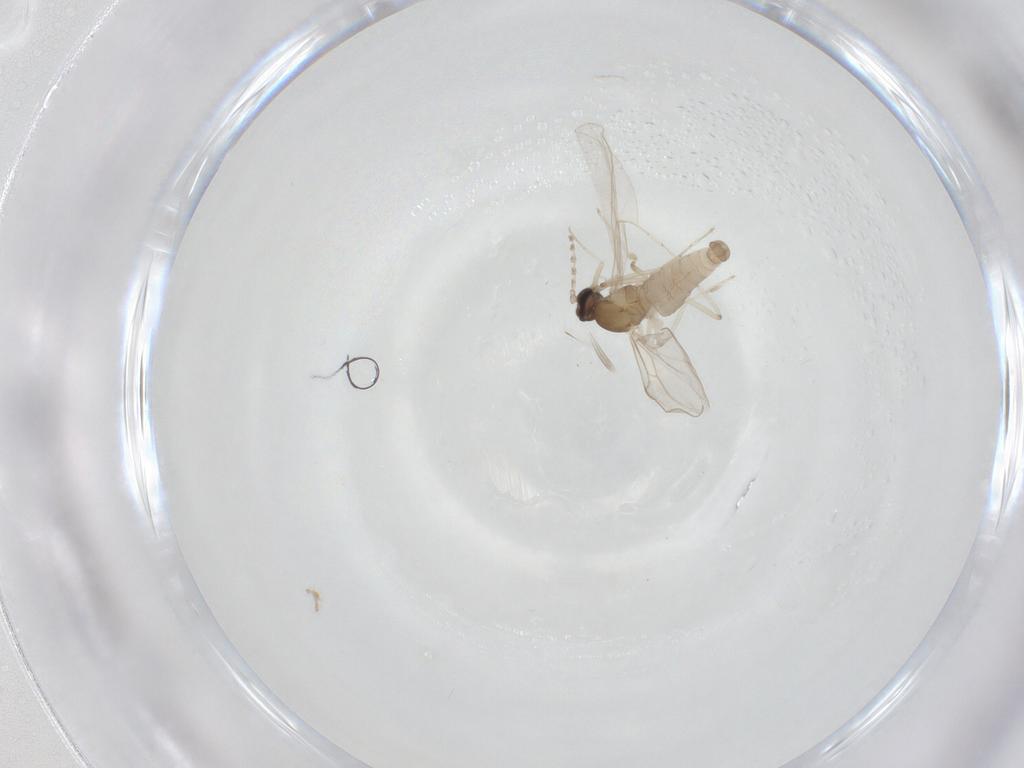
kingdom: Animalia
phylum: Arthropoda
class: Insecta
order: Diptera
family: Cecidomyiidae
